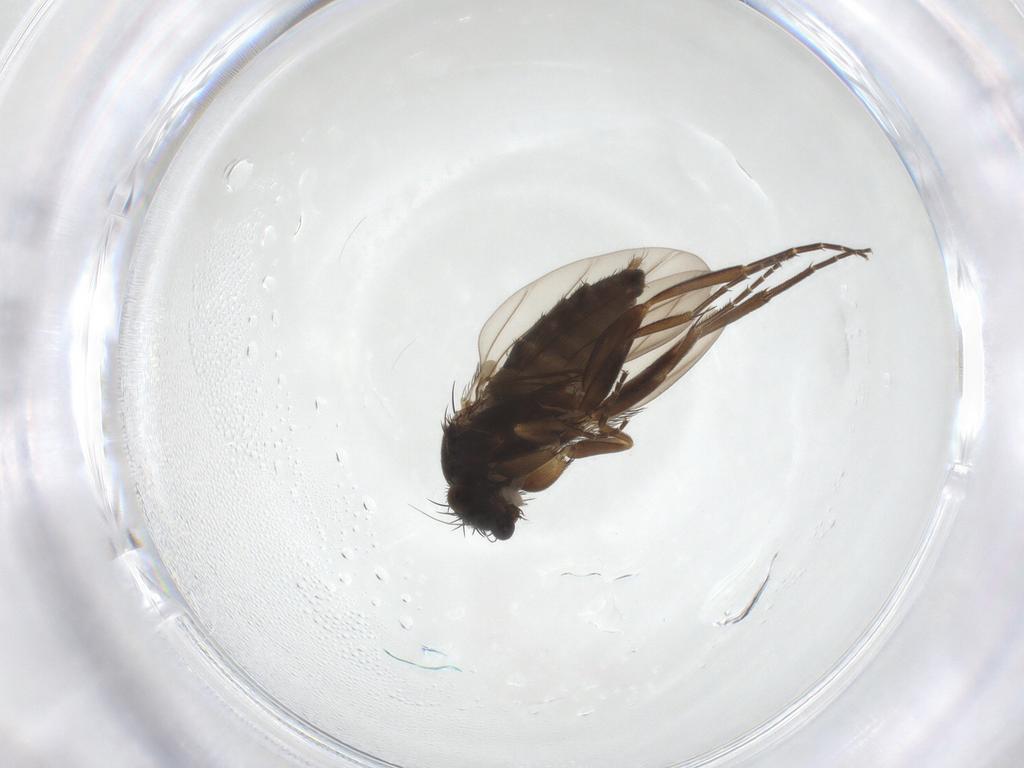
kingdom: Animalia
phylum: Arthropoda
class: Insecta
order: Diptera
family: Phoridae
